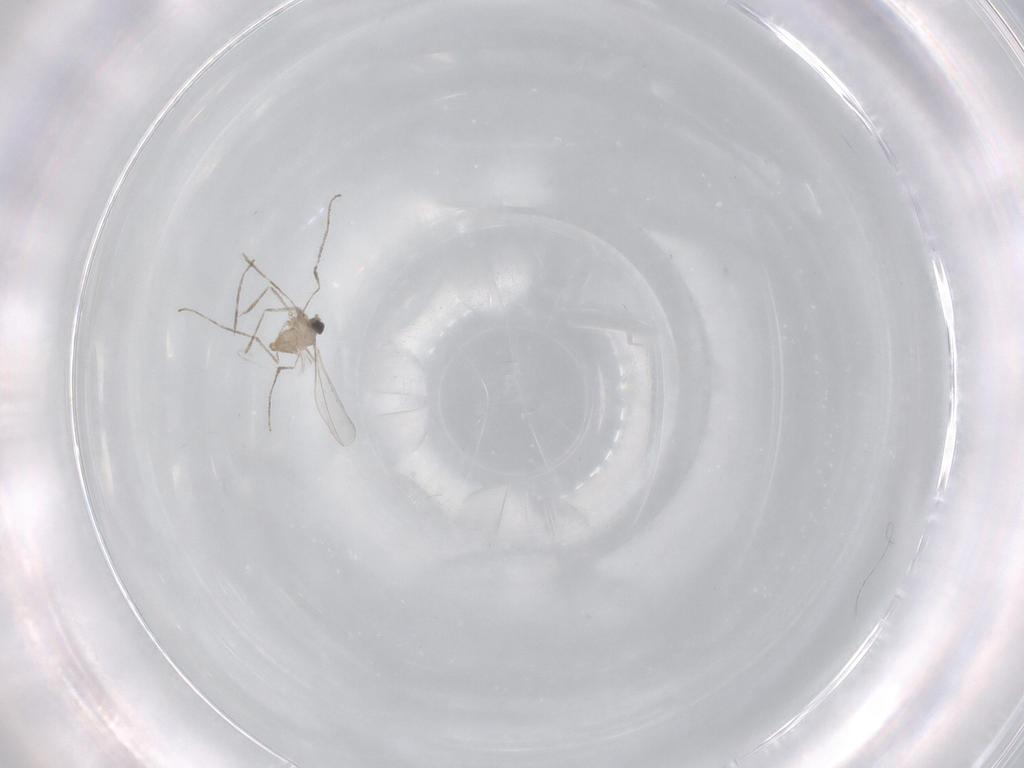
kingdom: Animalia
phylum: Arthropoda
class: Insecta
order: Diptera
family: Cecidomyiidae
